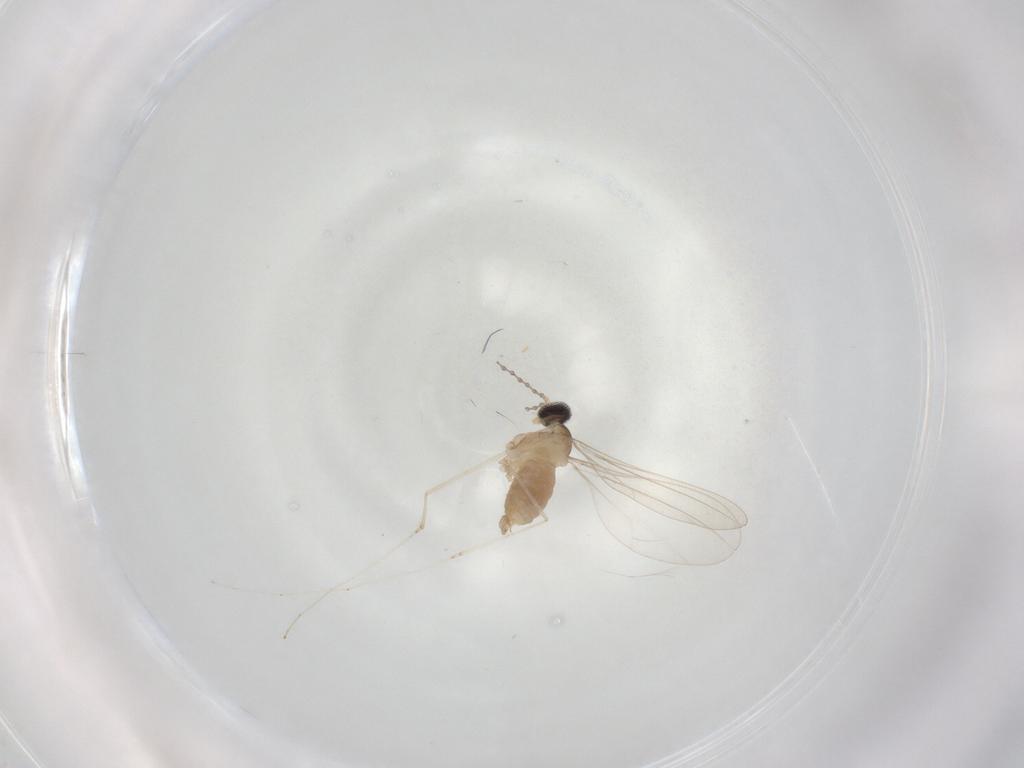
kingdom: Animalia
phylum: Arthropoda
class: Insecta
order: Diptera
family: Cecidomyiidae
